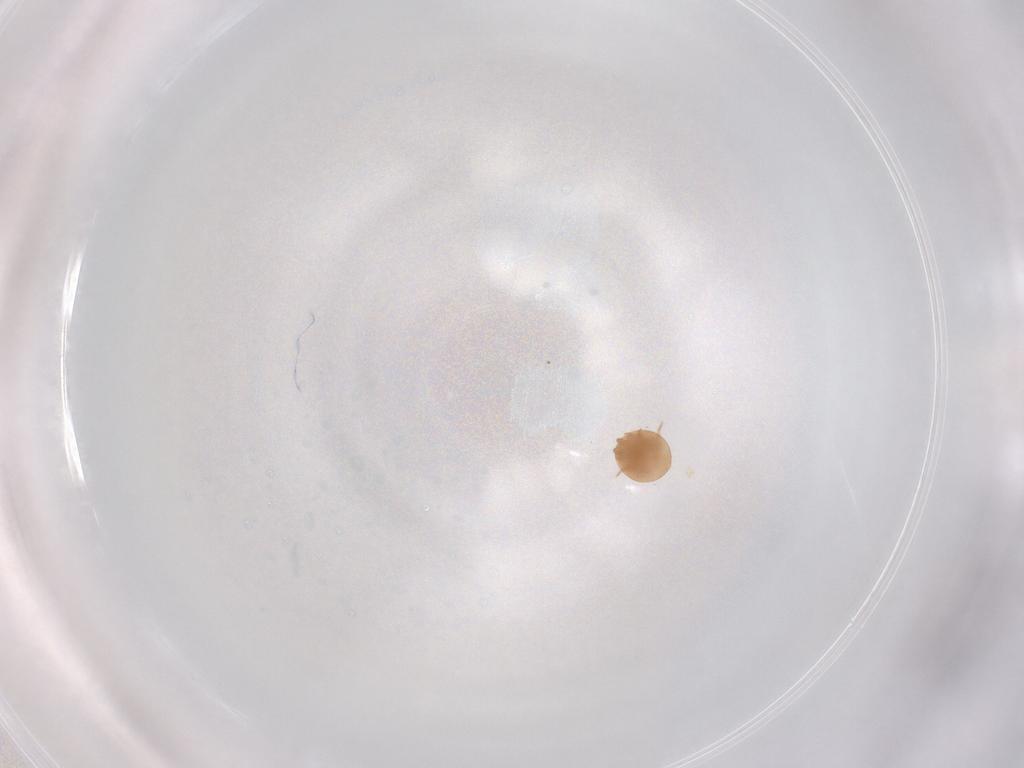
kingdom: Animalia
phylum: Arthropoda
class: Arachnida
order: Mesostigmata
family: Trematuridae
